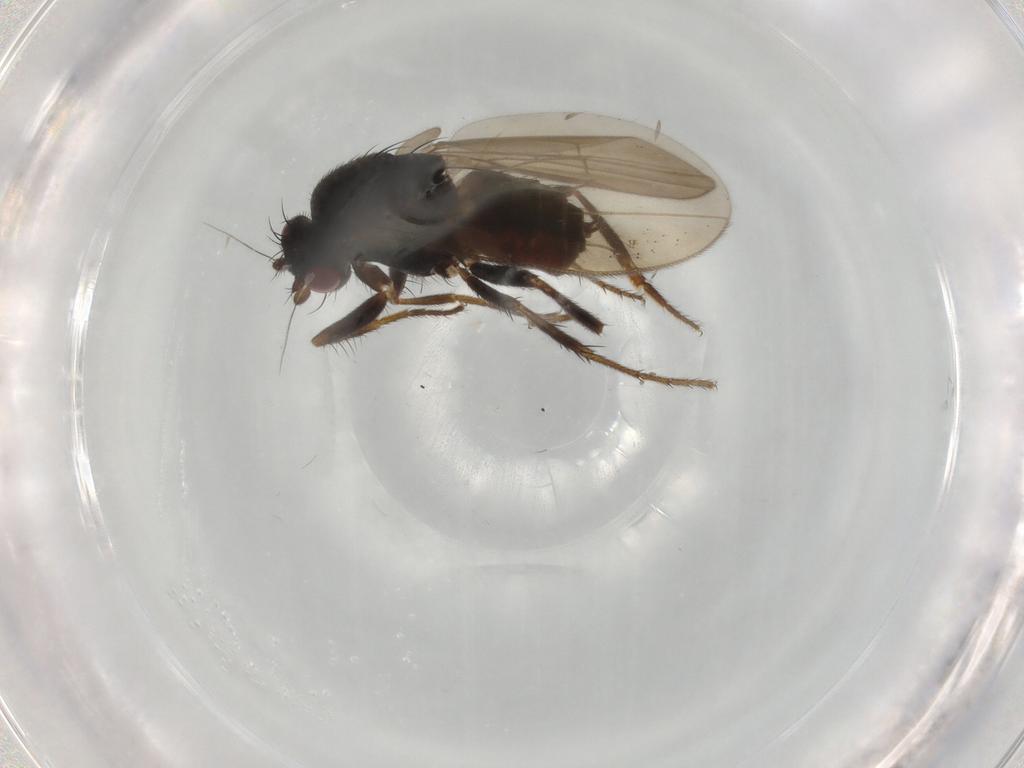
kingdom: Animalia
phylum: Arthropoda
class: Insecta
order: Diptera
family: Sphaeroceridae
